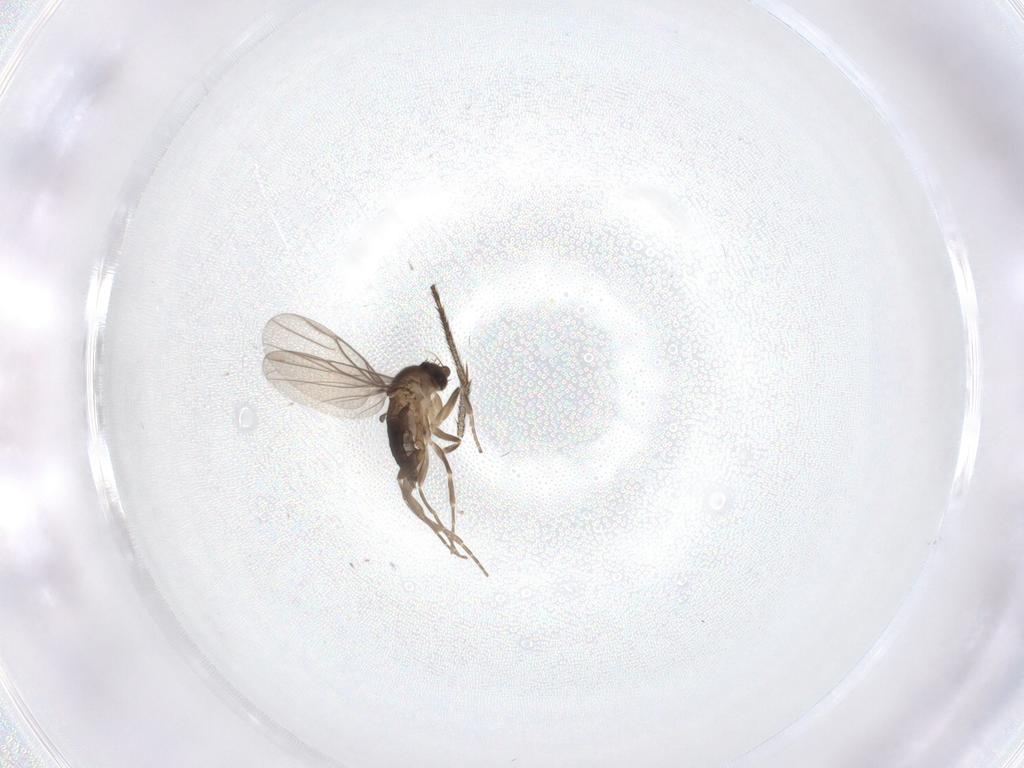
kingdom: Animalia
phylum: Arthropoda
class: Insecta
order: Diptera
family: Sciaridae
